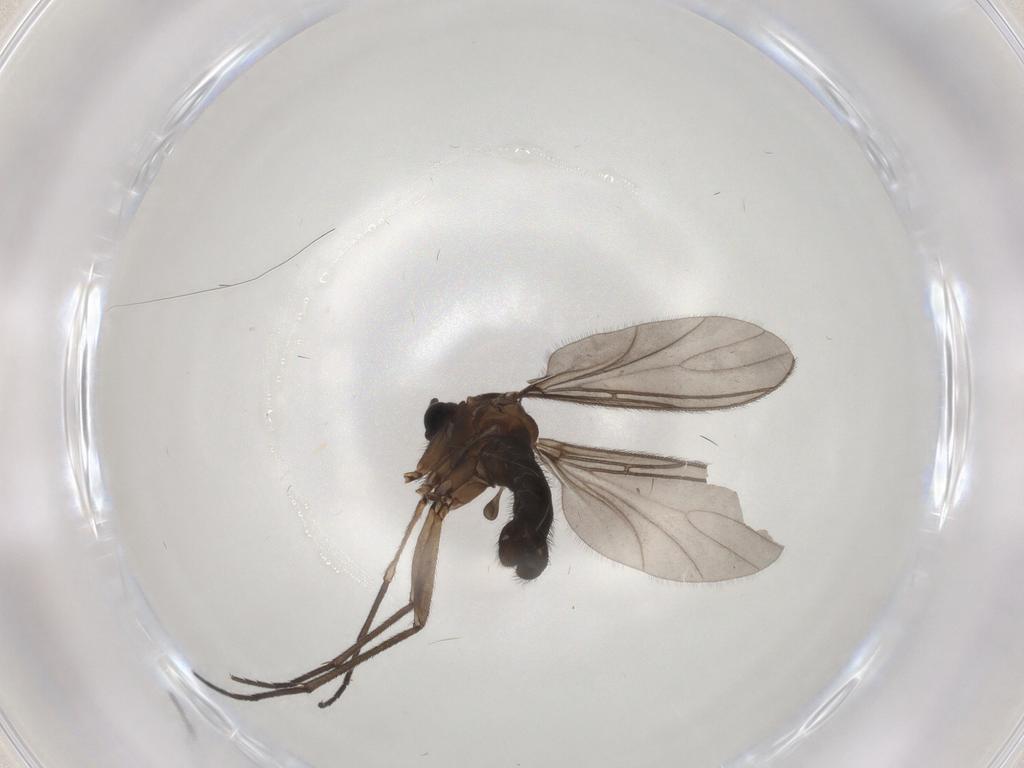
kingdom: Animalia
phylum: Arthropoda
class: Insecta
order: Diptera
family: Sciaridae
